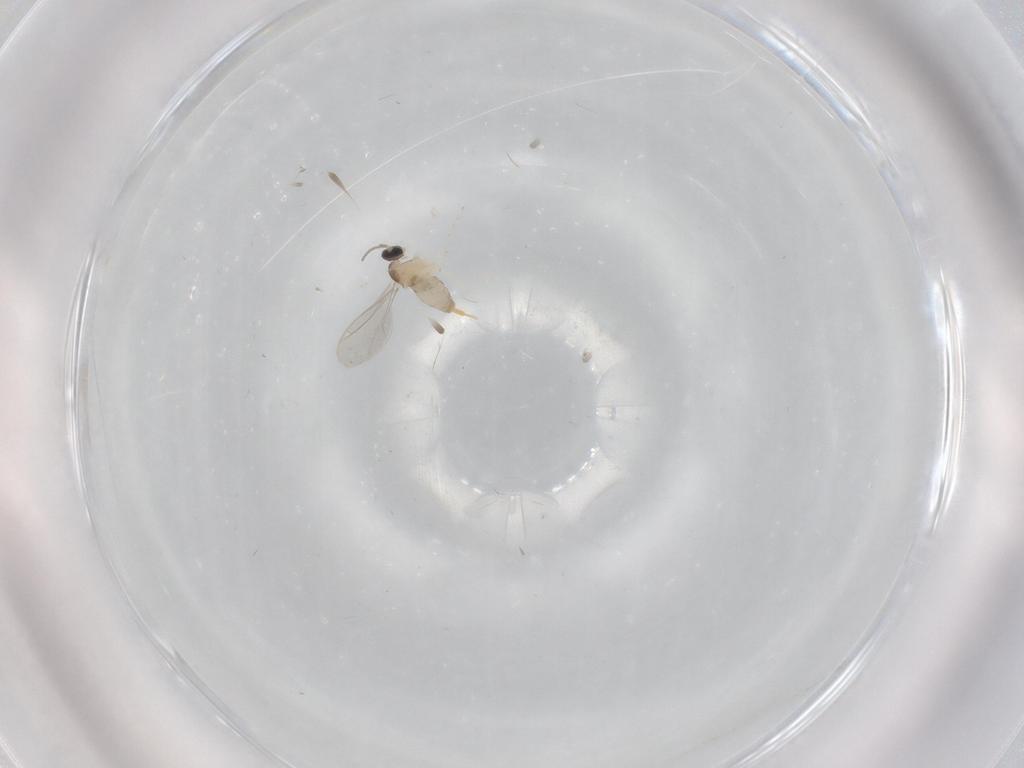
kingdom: Animalia
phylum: Arthropoda
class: Insecta
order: Diptera
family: Cecidomyiidae
